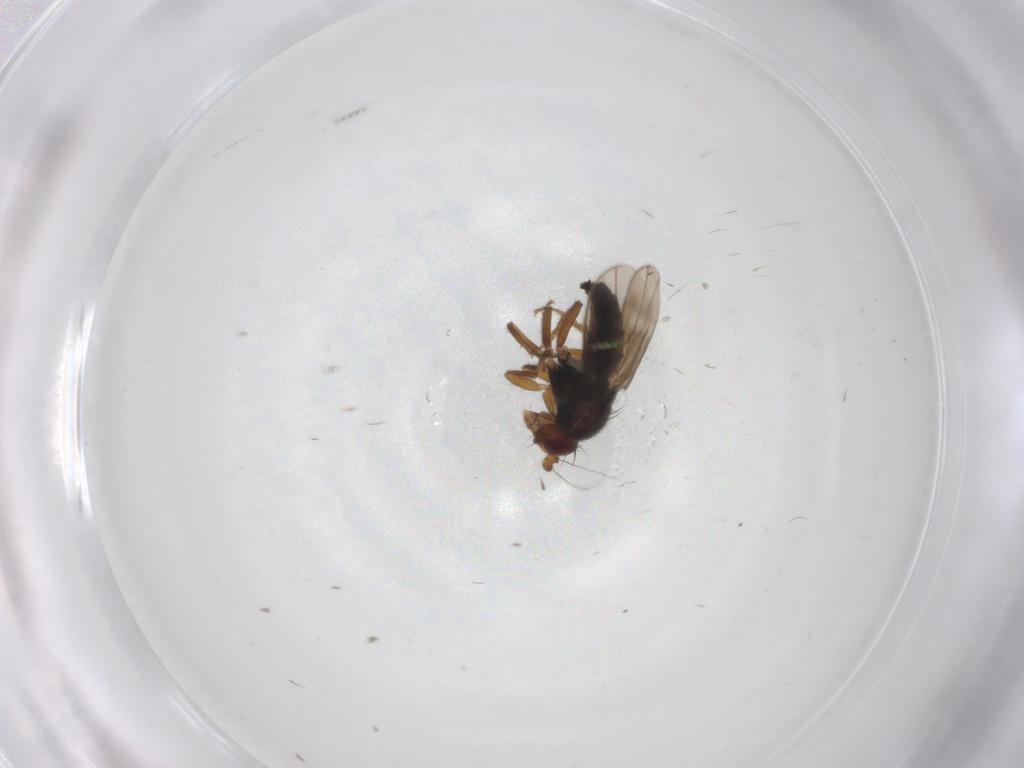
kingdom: Animalia
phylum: Arthropoda
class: Insecta
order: Diptera
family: Sphaeroceridae
